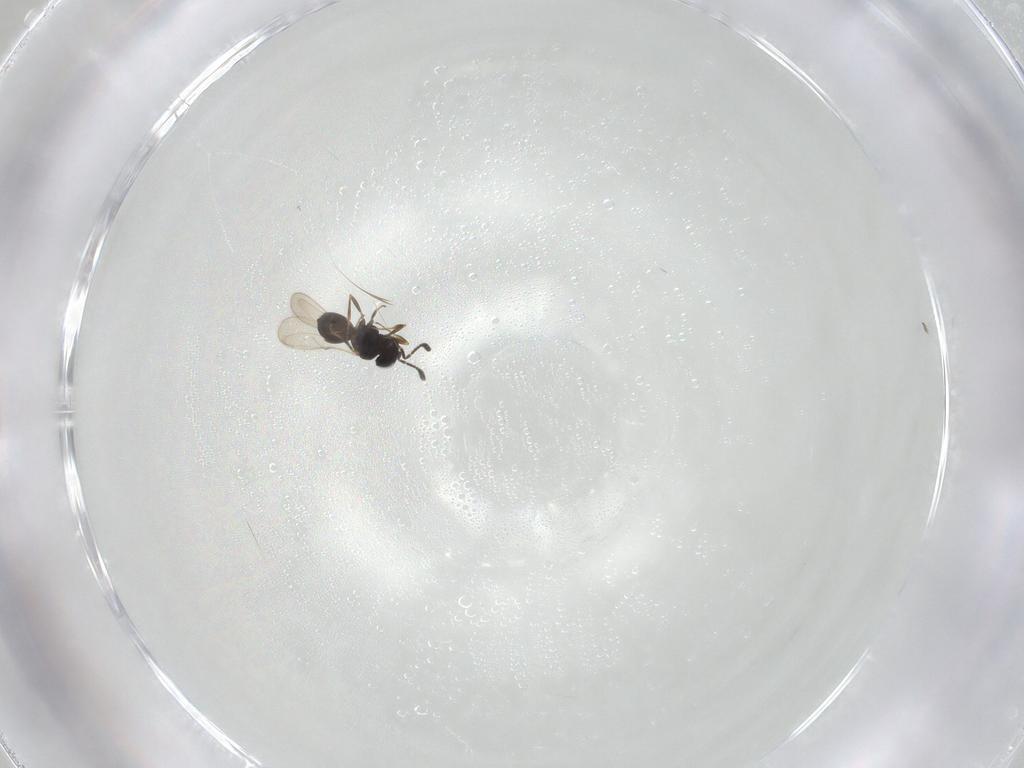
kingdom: Animalia
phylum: Arthropoda
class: Insecta
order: Hymenoptera
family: Scelionidae
